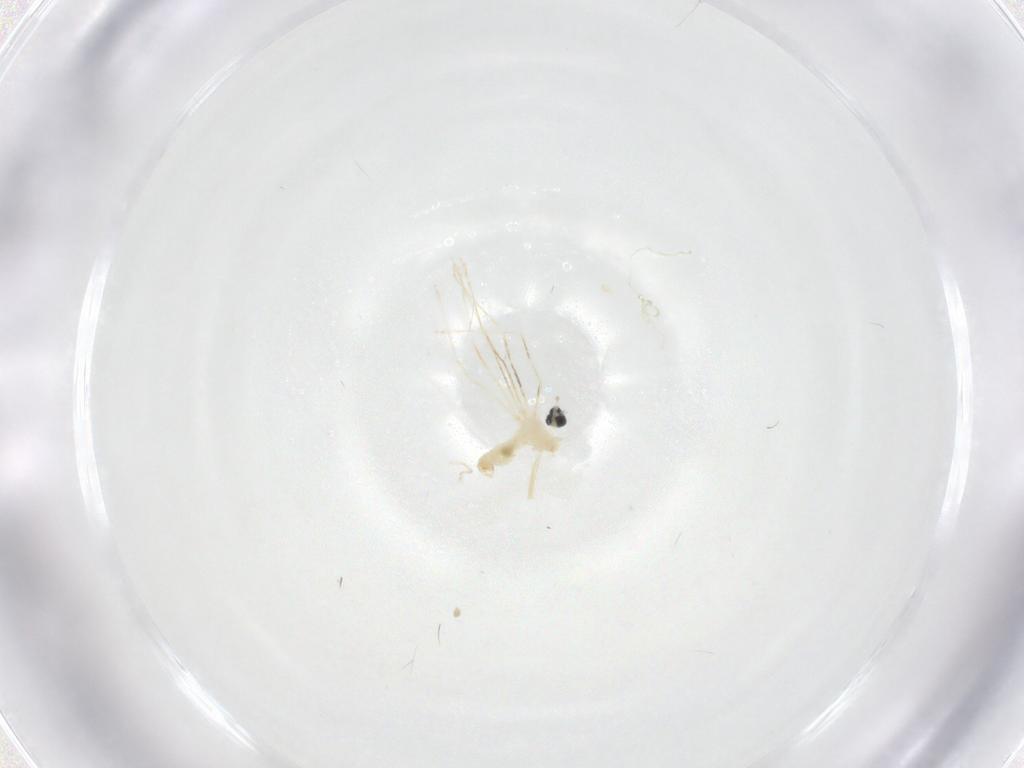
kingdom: Animalia
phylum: Arthropoda
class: Insecta
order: Diptera
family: Cecidomyiidae
